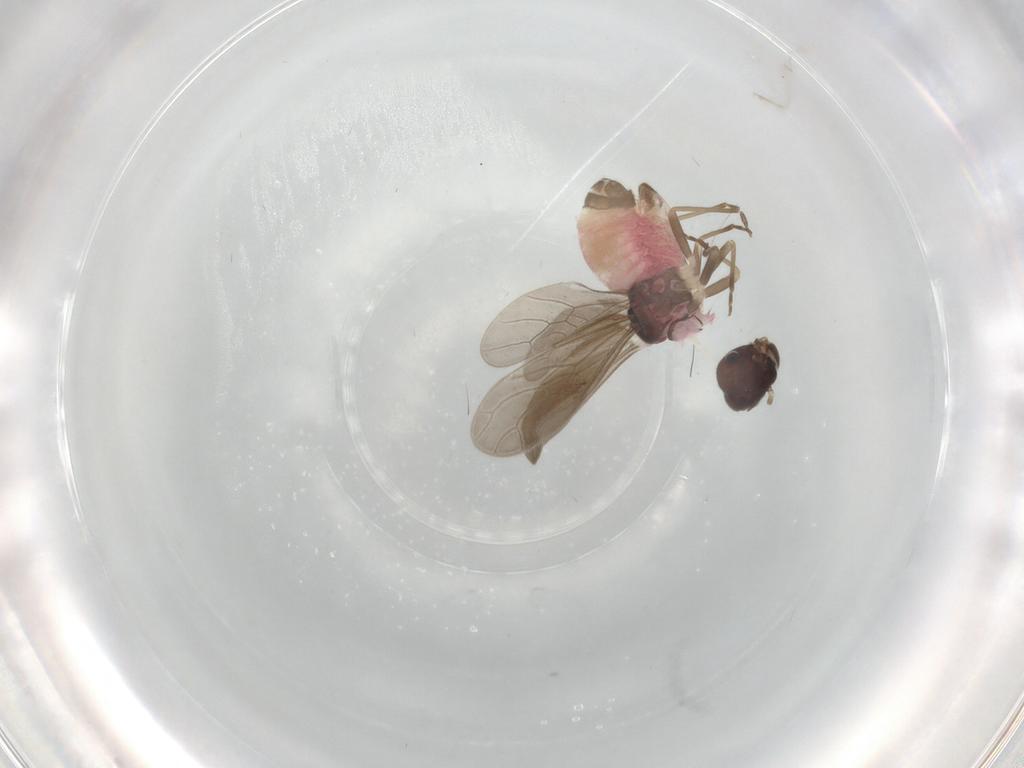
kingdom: Animalia
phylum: Arthropoda
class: Insecta
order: Psocodea
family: Archipsocidae
